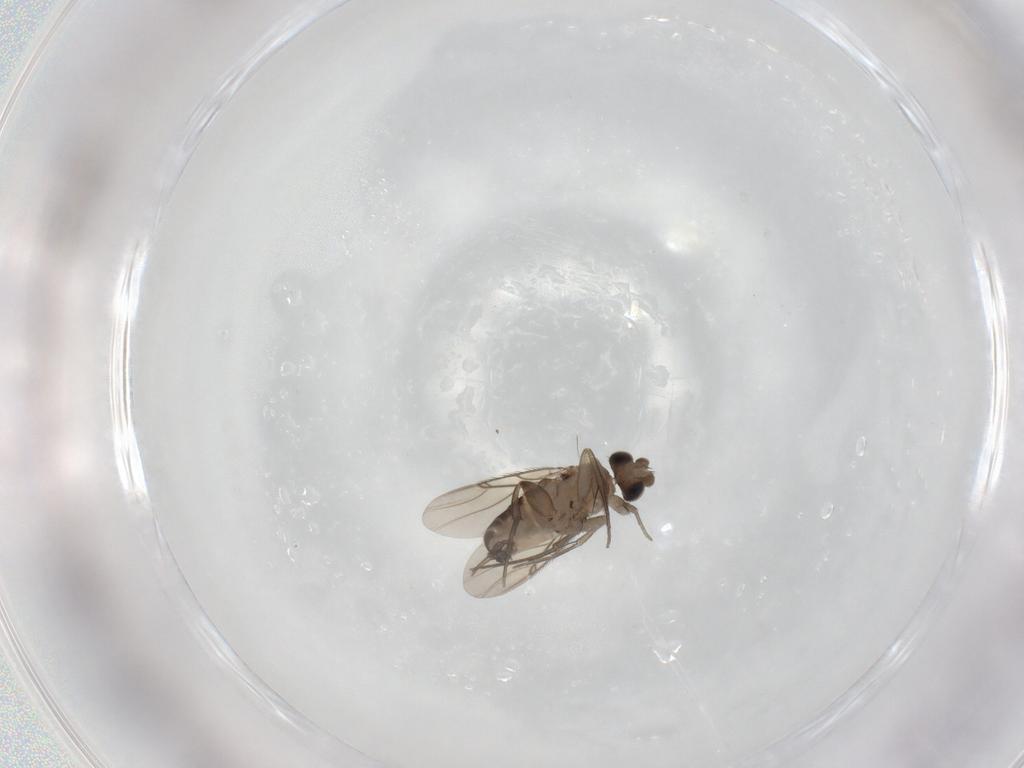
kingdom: Animalia
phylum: Arthropoda
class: Insecta
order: Diptera
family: Phoridae
